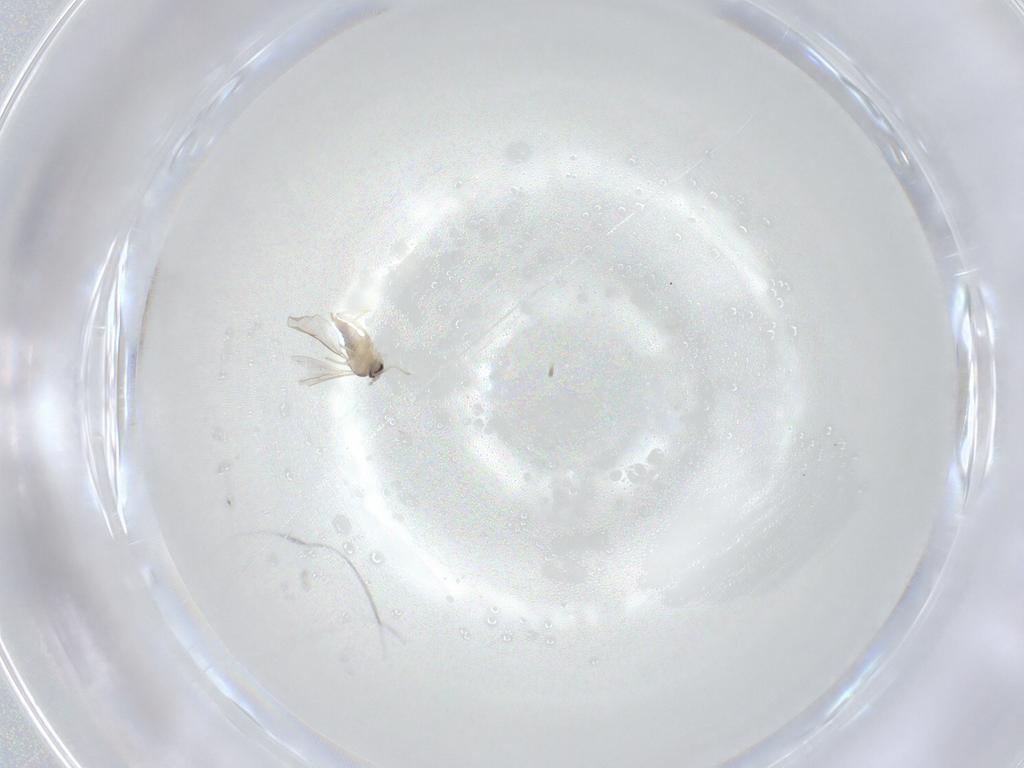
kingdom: Animalia
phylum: Arthropoda
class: Insecta
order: Diptera
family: Cecidomyiidae
